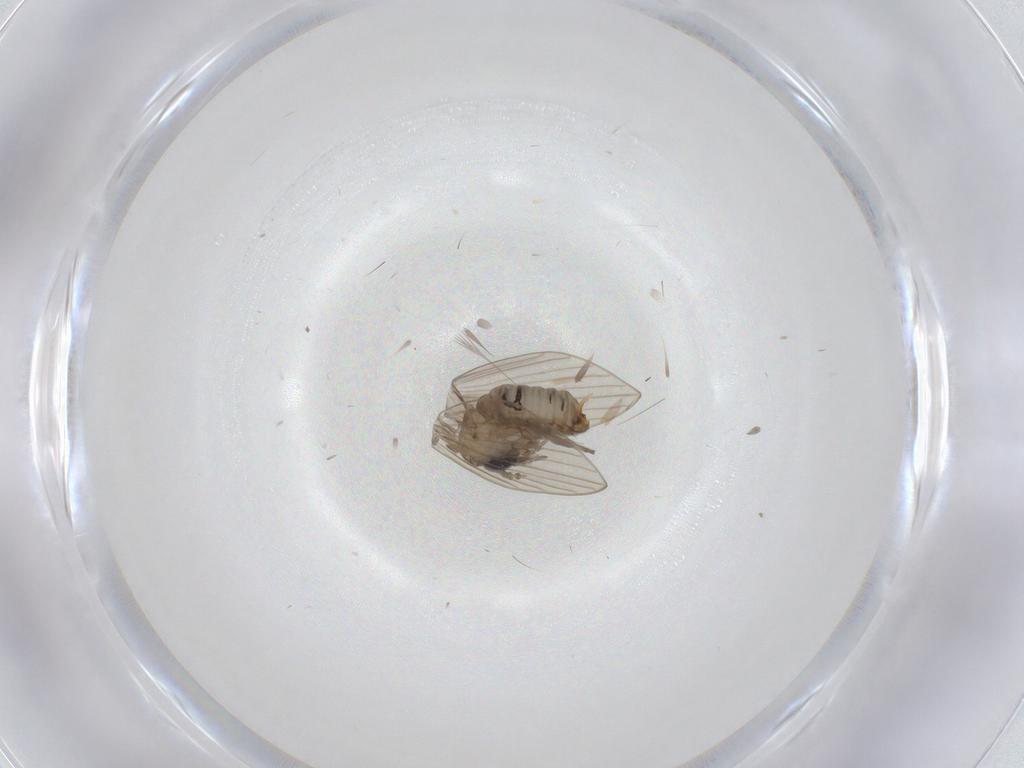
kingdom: Animalia
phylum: Arthropoda
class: Insecta
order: Diptera
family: Psychodidae
